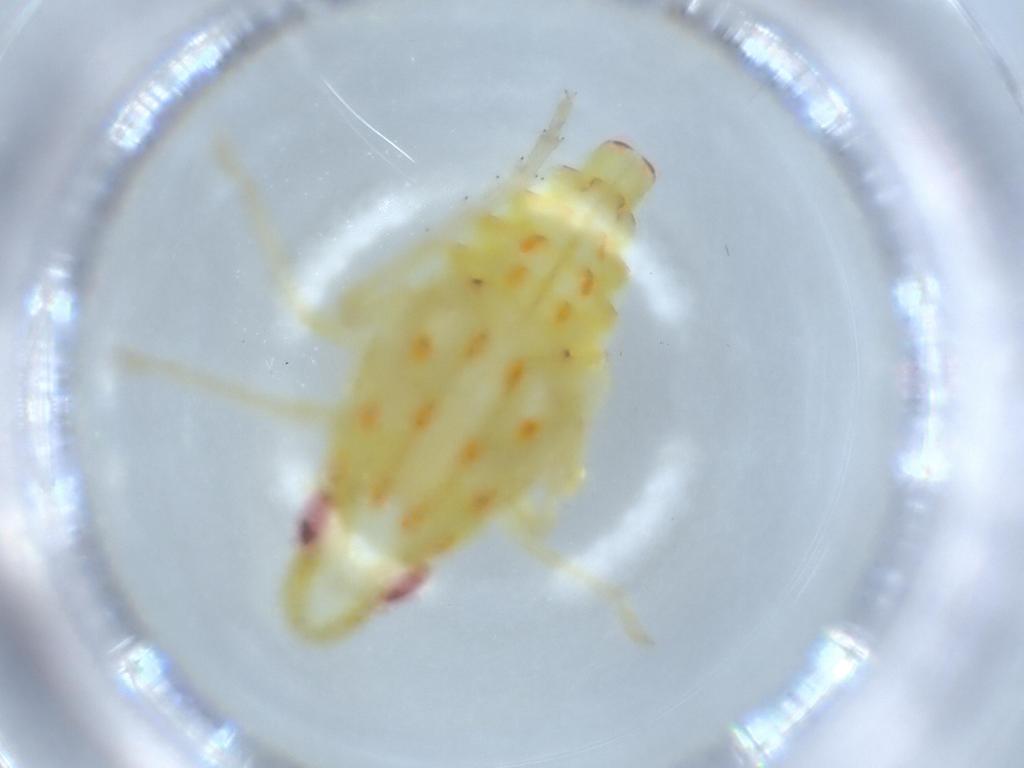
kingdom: Animalia
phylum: Arthropoda
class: Insecta
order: Hemiptera
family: Tropiduchidae
